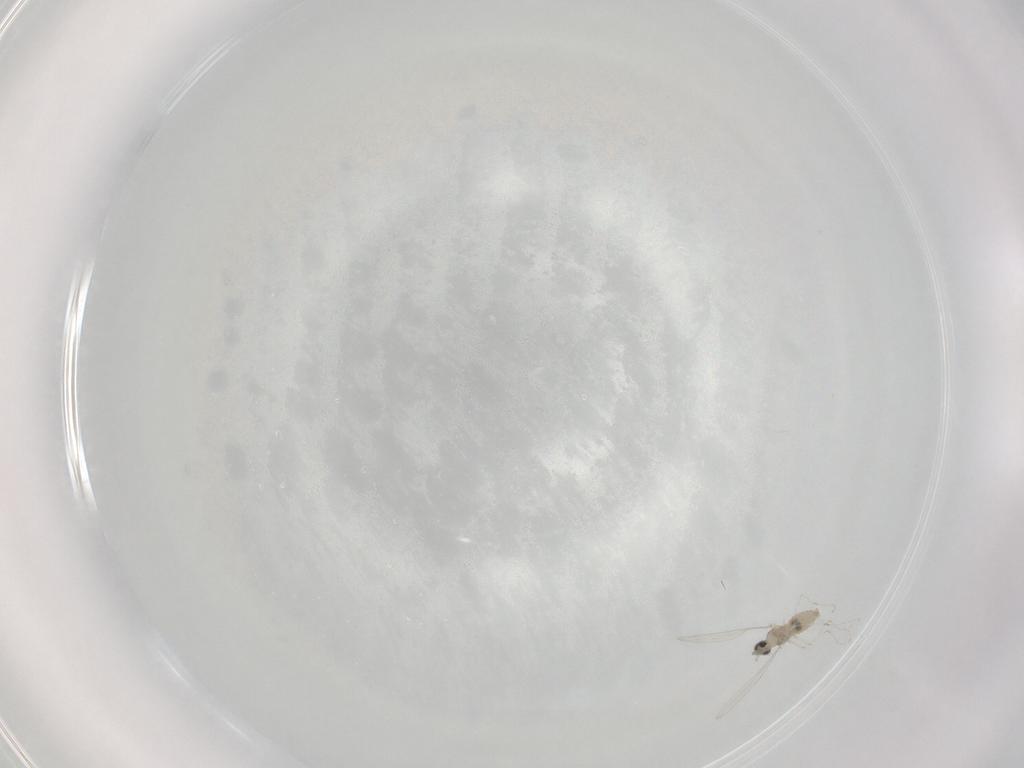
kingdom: Animalia
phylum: Arthropoda
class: Insecta
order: Diptera
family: Cecidomyiidae
